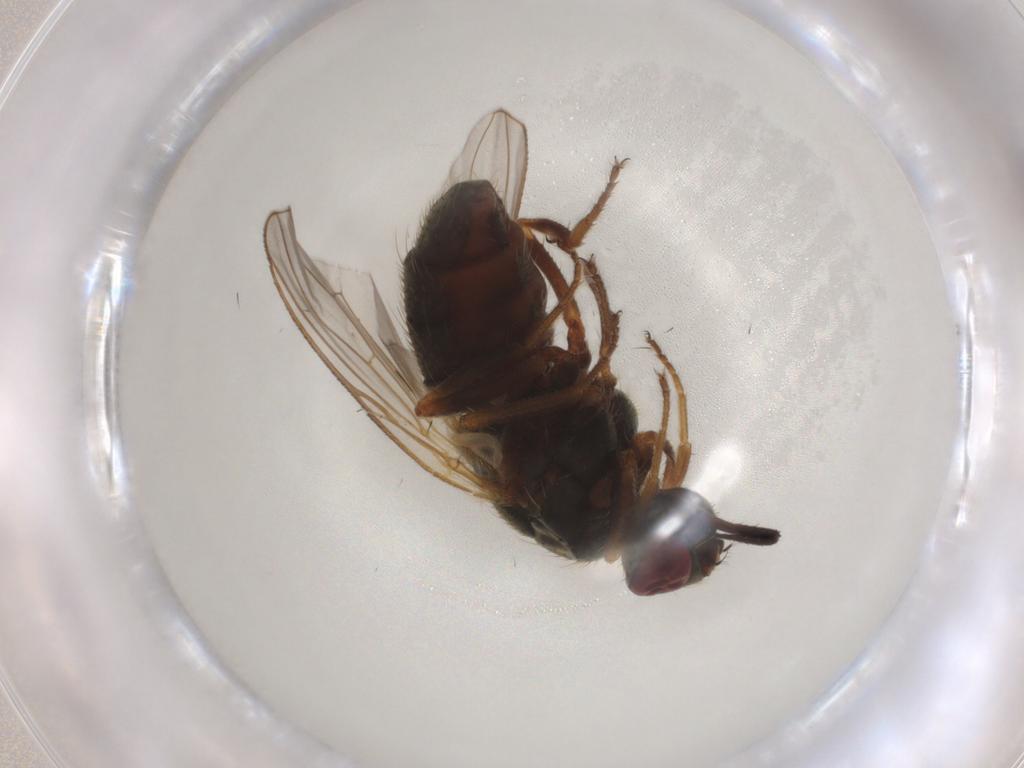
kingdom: Animalia
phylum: Arthropoda
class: Insecta
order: Diptera
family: Muscidae
